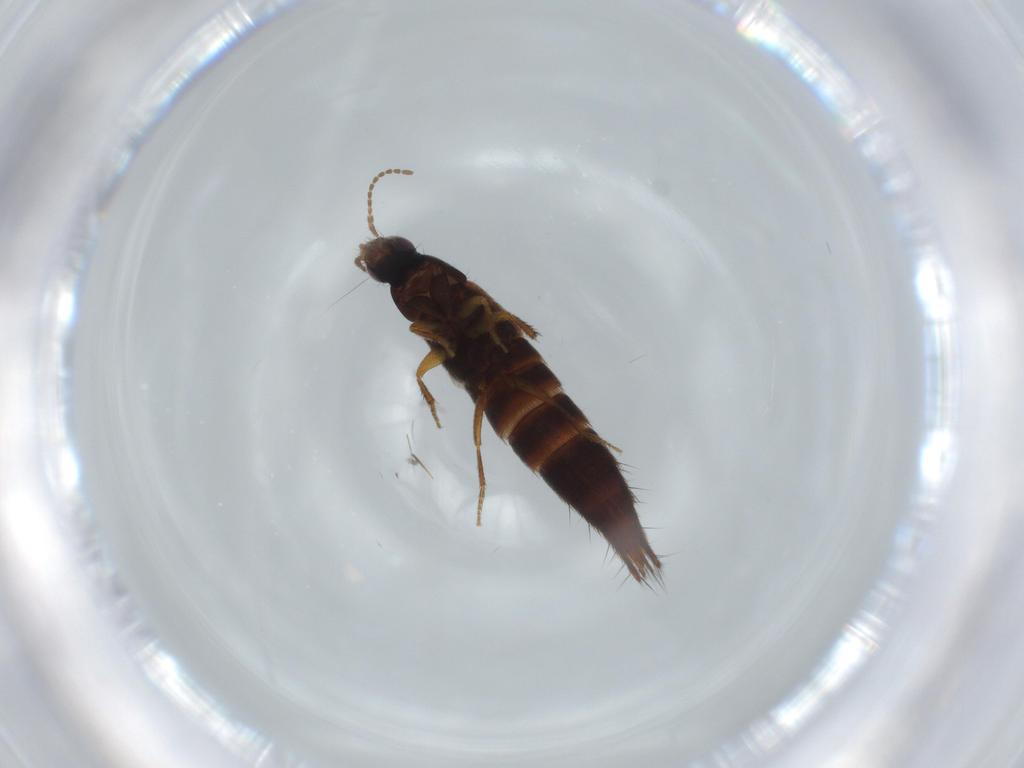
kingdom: Animalia
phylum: Arthropoda
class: Insecta
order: Coleoptera
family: Staphylinidae
